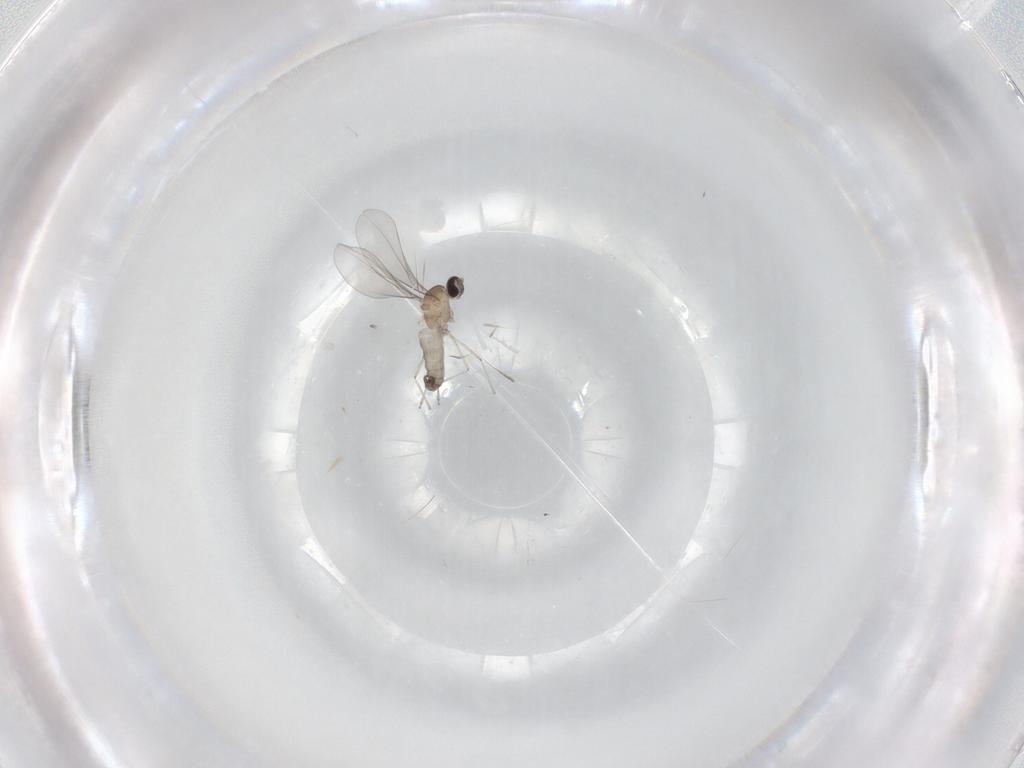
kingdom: Animalia
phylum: Arthropoda
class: Insecta
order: Diptera
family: Cecidomyiidae
